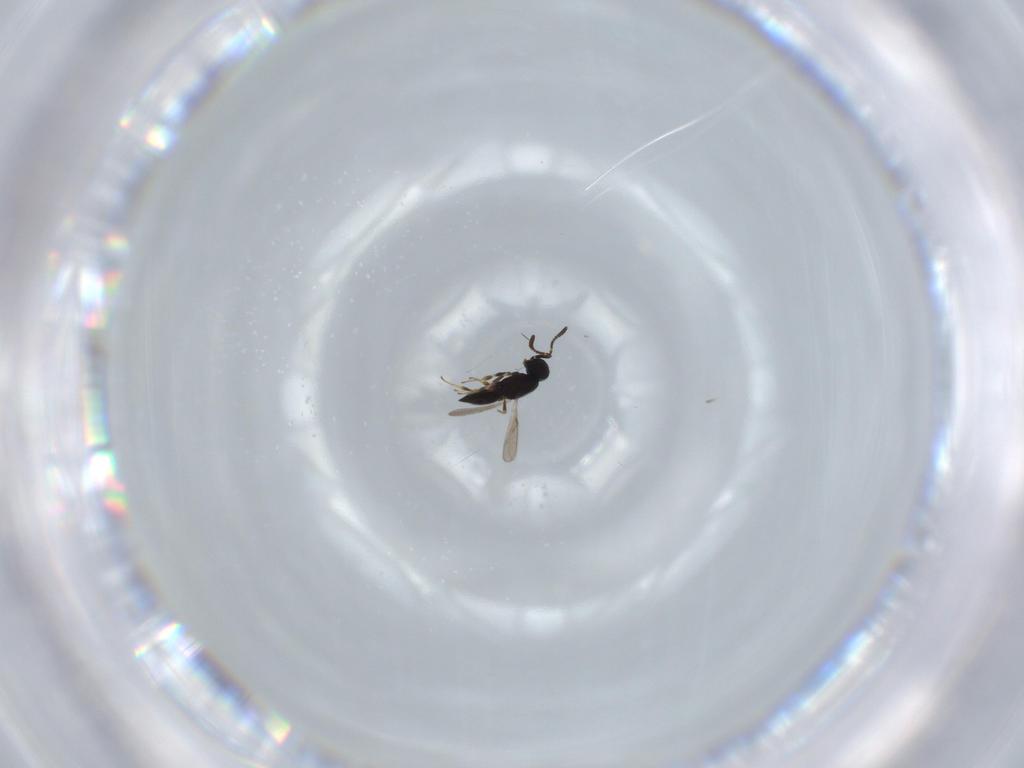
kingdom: Animalia
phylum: Arthropoda
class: Insecta
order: Hymenoptera
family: Scelionidae
